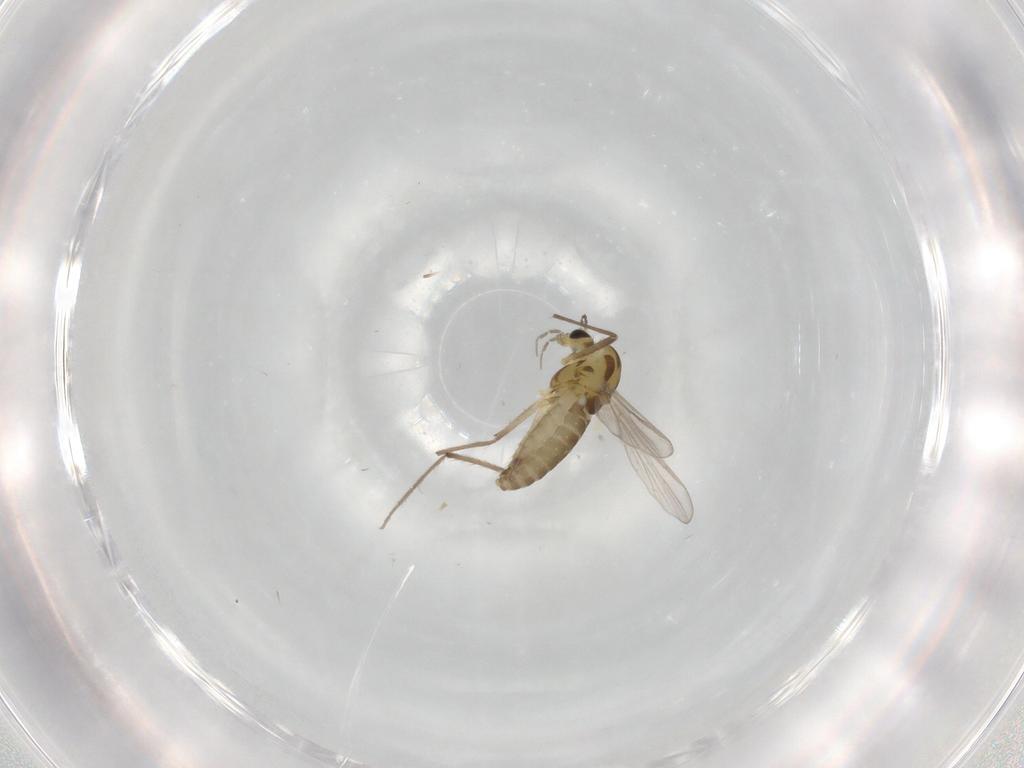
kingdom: Animalia
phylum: Arthropoda
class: Insecta
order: Diptera
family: Chironomidae
